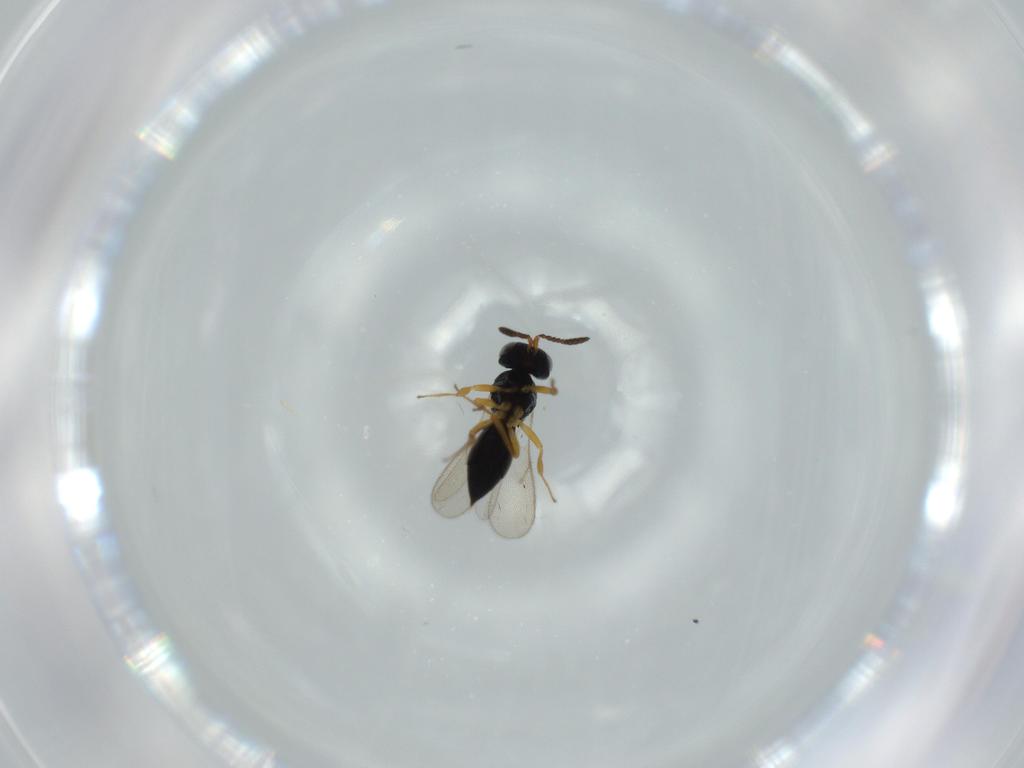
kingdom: Animalia
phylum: Arthropoda
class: Insecta
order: Hymenoptera
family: Scelionidae
